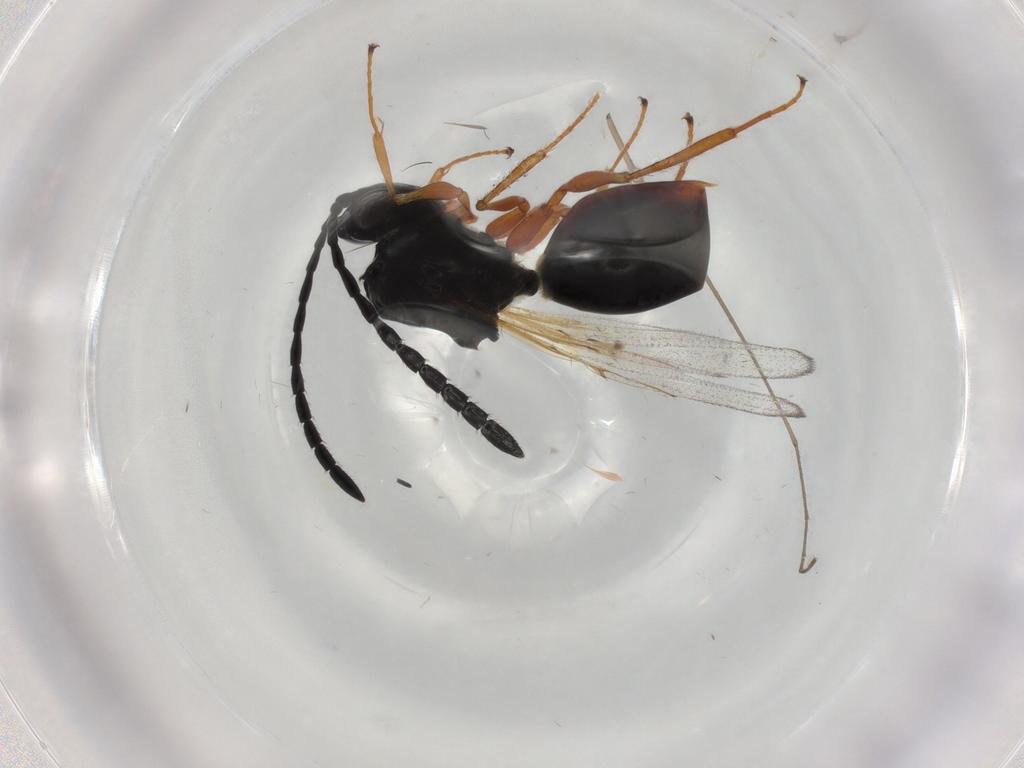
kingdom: Animalia
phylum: Arthropoda
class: Insecta
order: Hymenoptera
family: Figitidae
